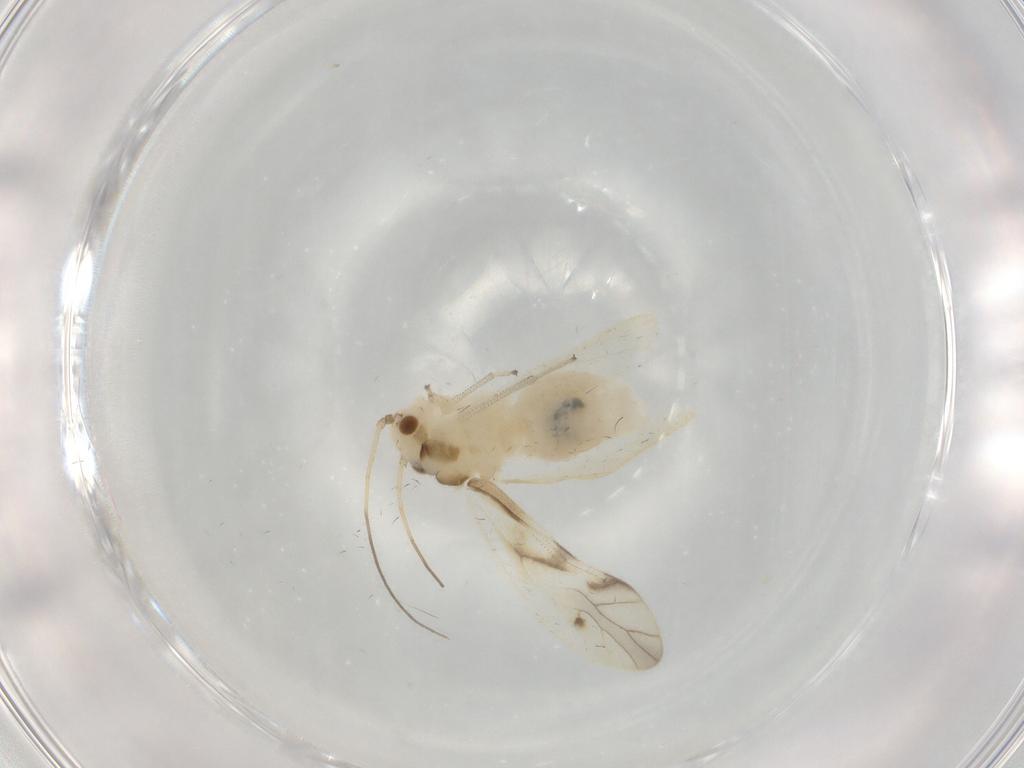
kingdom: Animalia
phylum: Arthropoda
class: Insecta
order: Psocodea
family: Caeciliusidae
